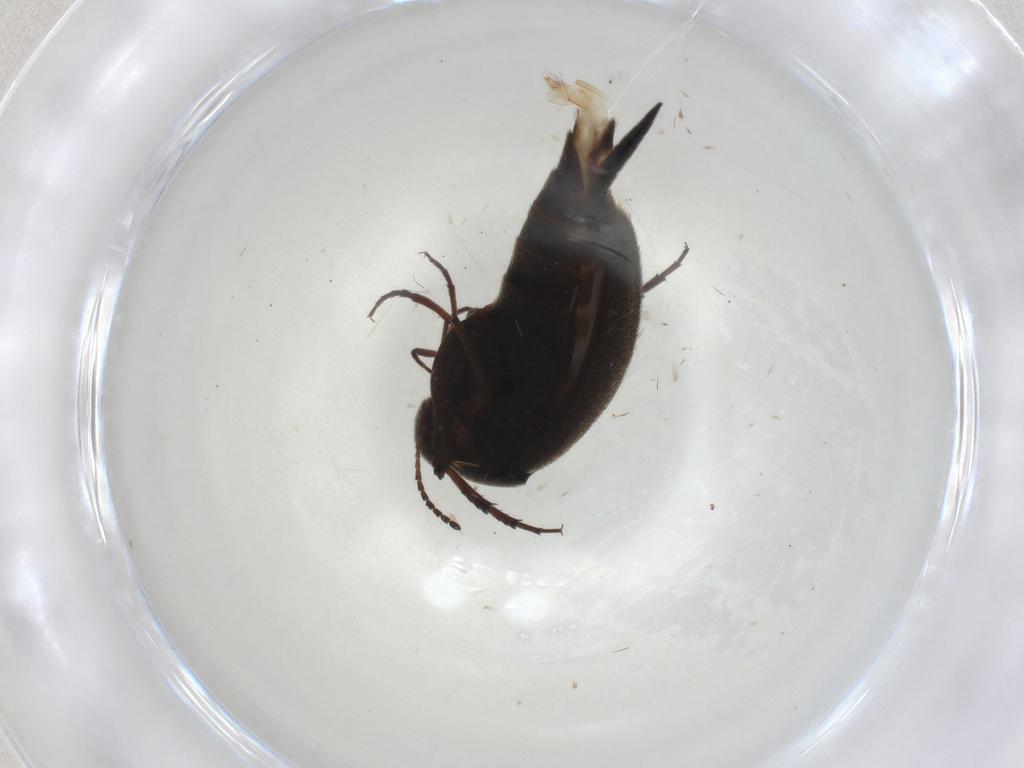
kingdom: Animalia
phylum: Arthropoda
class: Insecta
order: Coleoptera
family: Mordellidae
